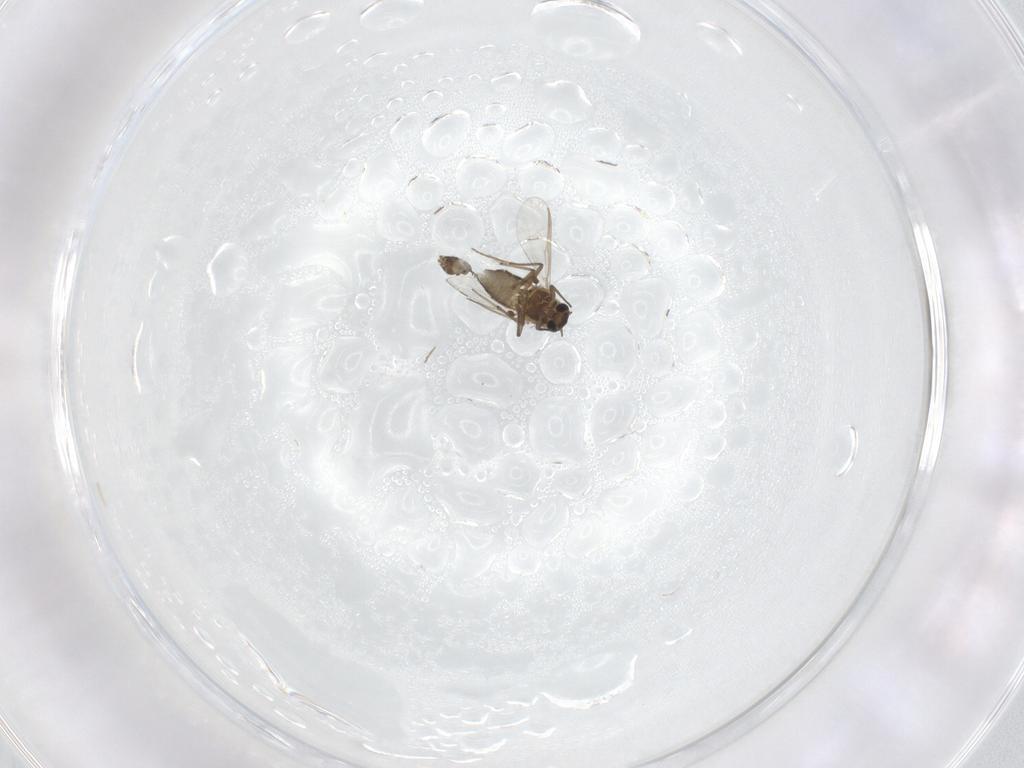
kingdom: Animalia
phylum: Arthropoda
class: Insecta
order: Diptera
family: Chironomidae
